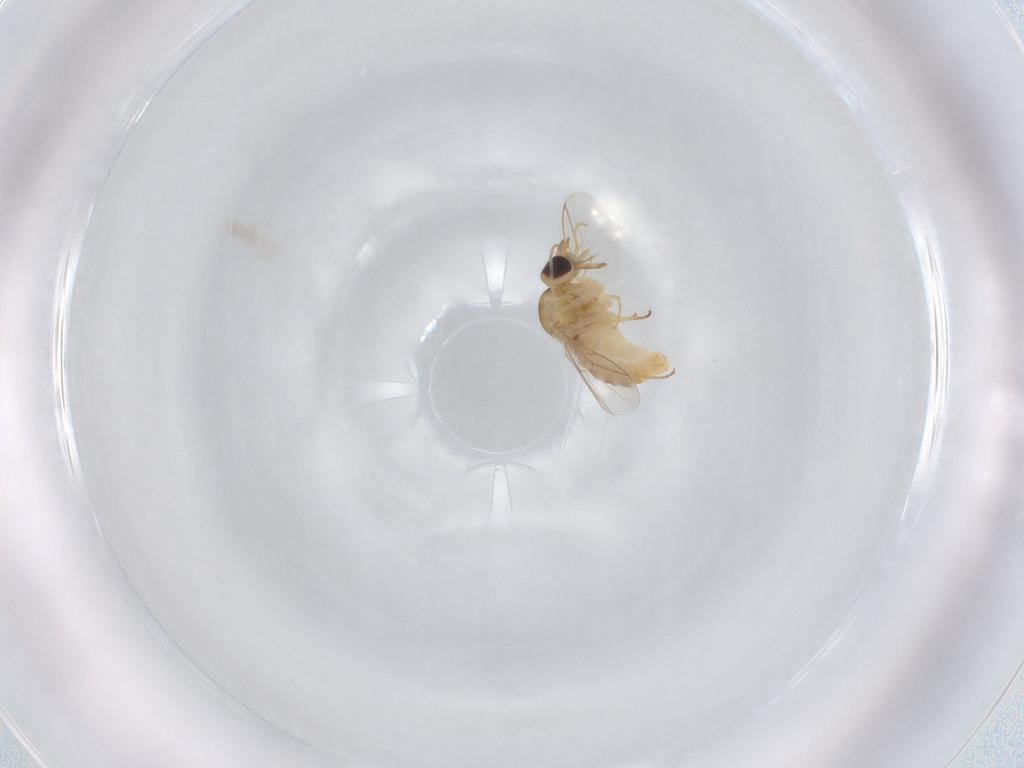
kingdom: Animalia
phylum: Arthropoda
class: Insecta
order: Diptera
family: Mythicomyiidae
